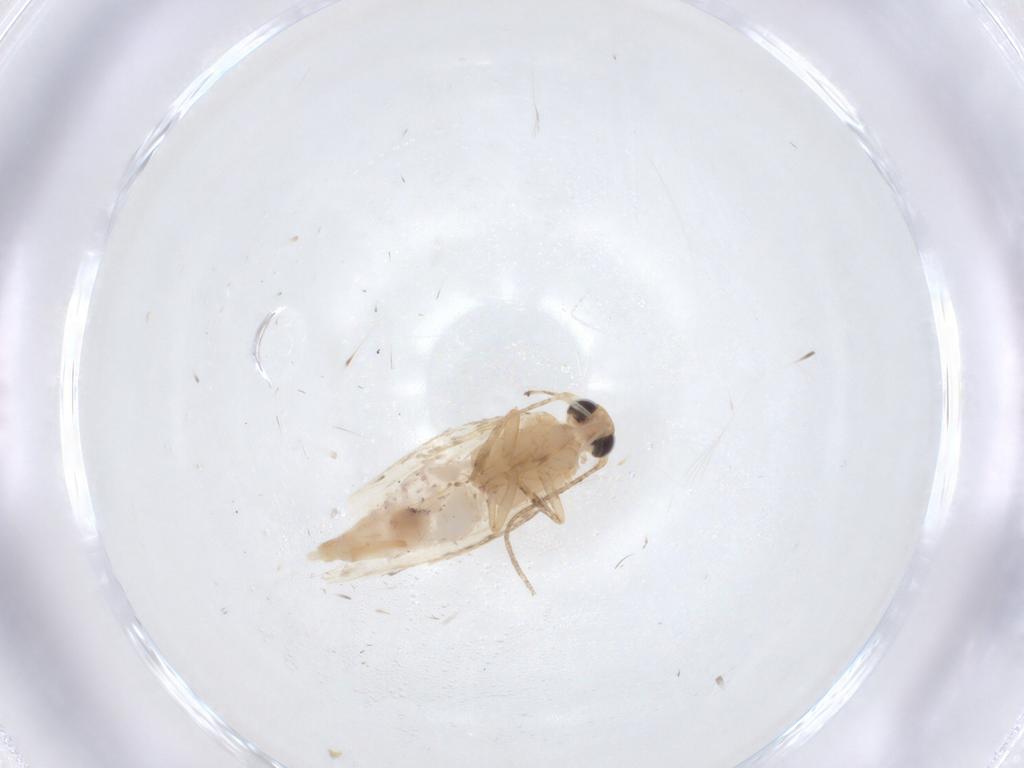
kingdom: Animalia
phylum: Arthropoda
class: Insecta
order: Lepidoptera
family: Gelechiidae
